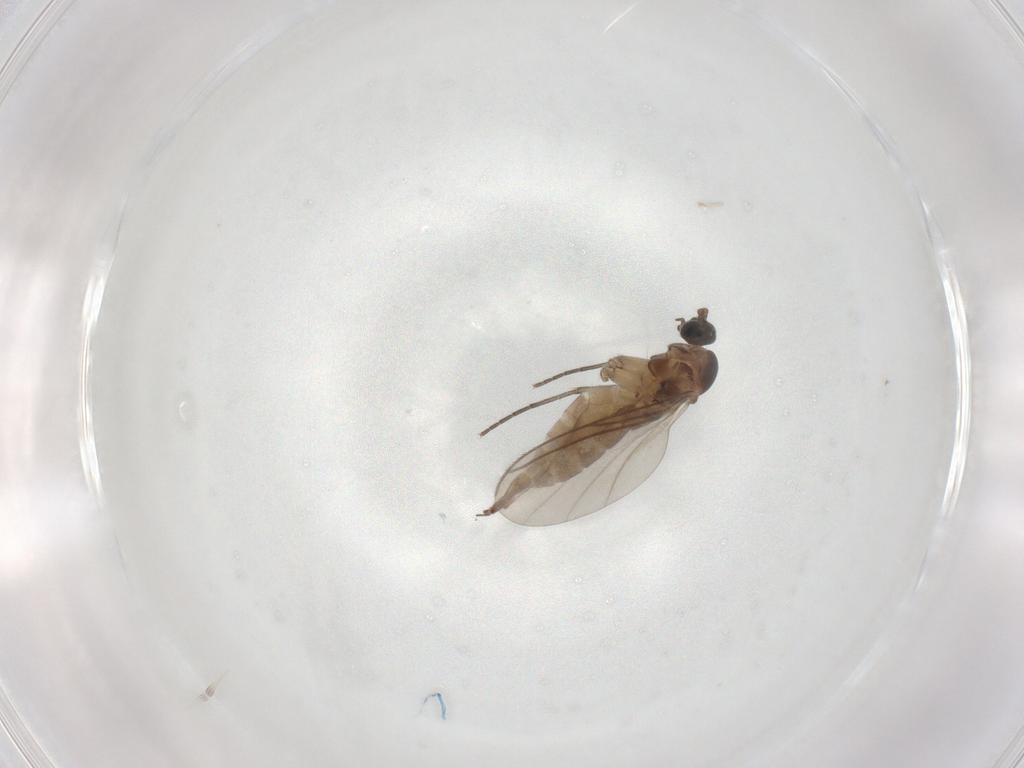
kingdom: Animalia
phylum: Arthropoda
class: Insecta
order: Diptera
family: Sciaridae
